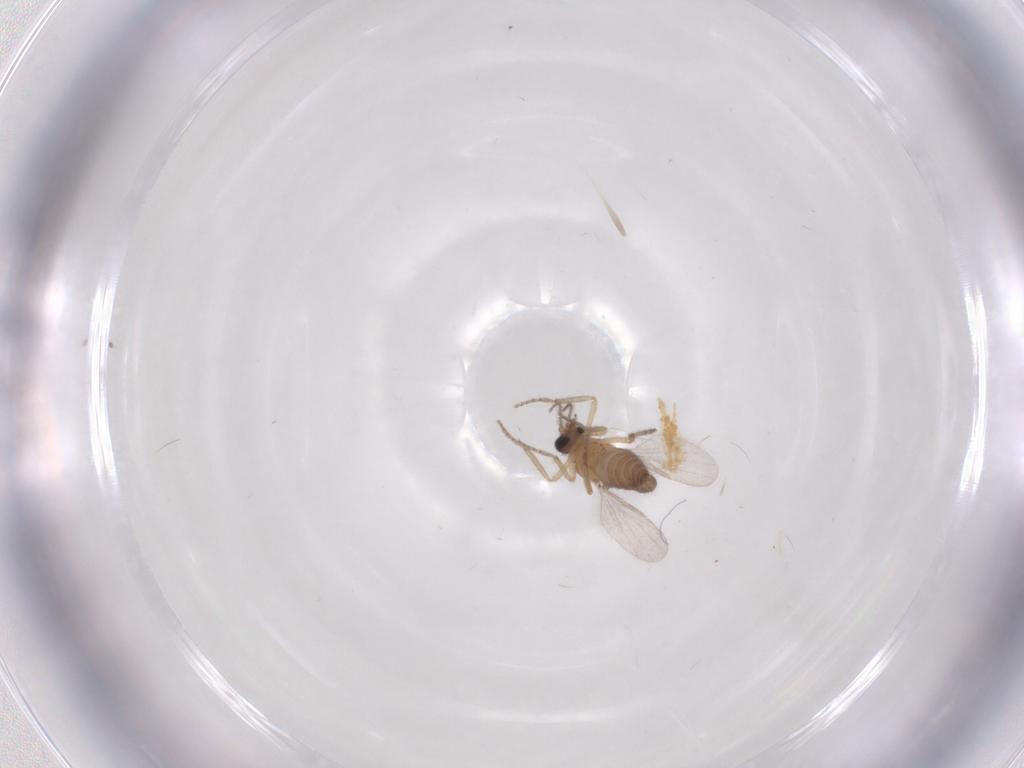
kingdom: Animalia
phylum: Arthropoda
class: Insecta
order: Diptera
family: Ceratopogonidae
